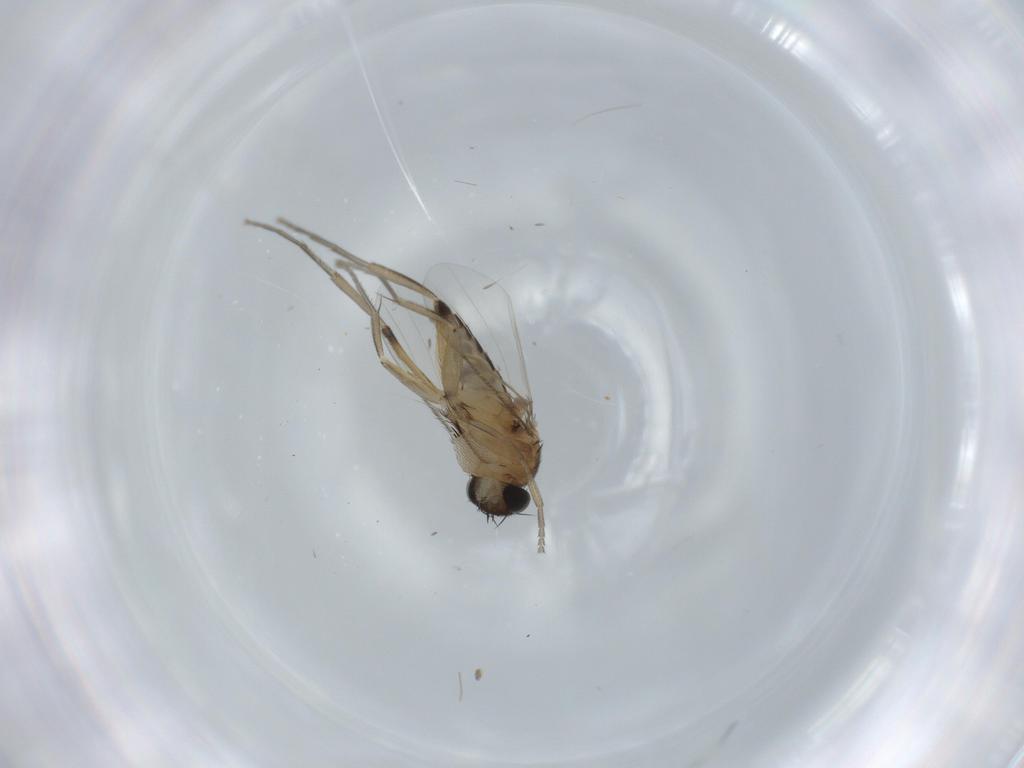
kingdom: Animalia
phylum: Arthropoda
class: Insecta
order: Diptera
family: Phoridae
